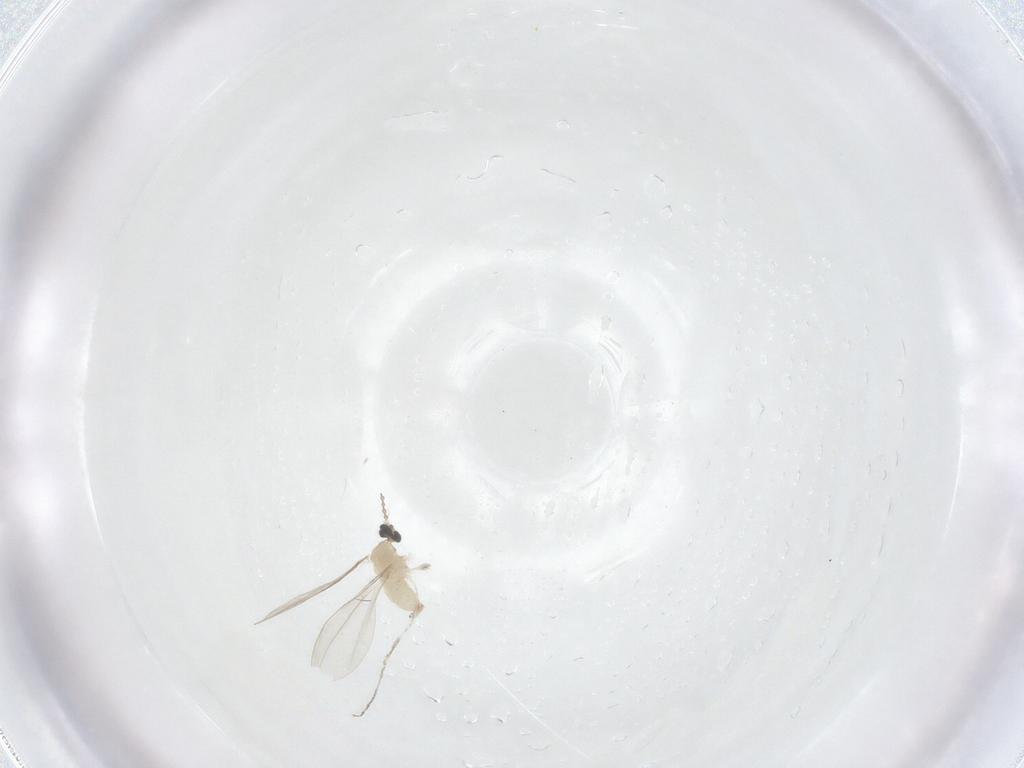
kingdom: Animalia
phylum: Arthropoda
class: Insecta
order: Diptera
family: Cecidomyiidae
